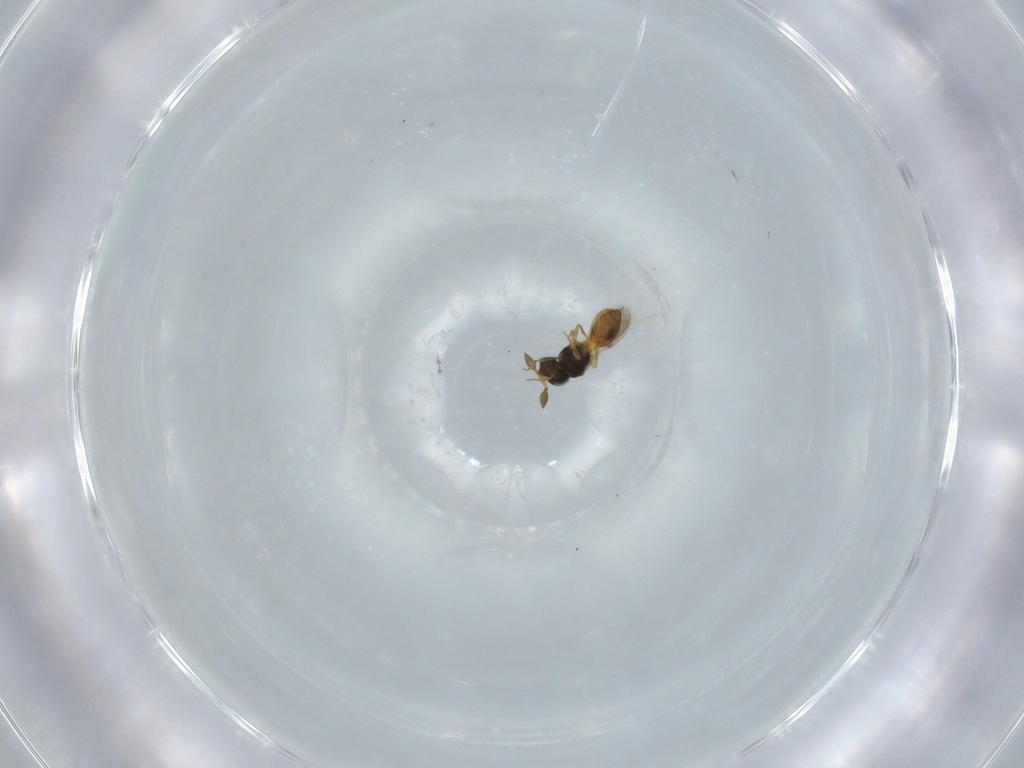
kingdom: Animalia
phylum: Arthropoda
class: Insecta
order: Hymenoptera
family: Scelionidae
